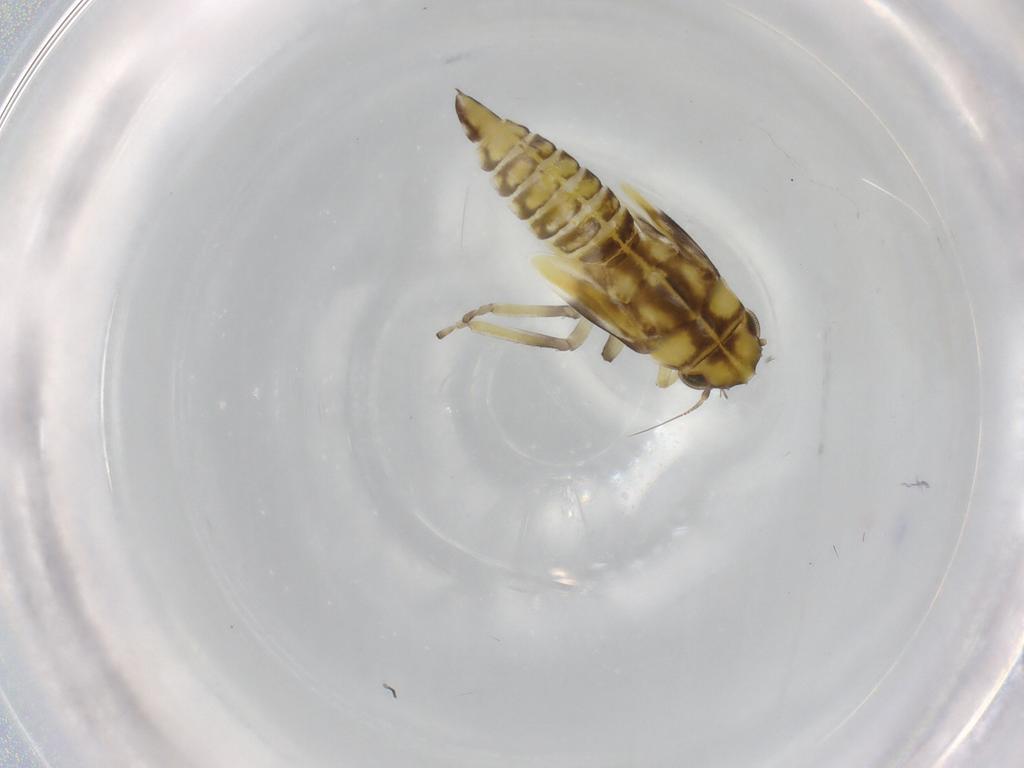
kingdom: Animalia
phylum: Arthropoda
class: Insecta
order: Hemiptera
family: Cicadellidae
